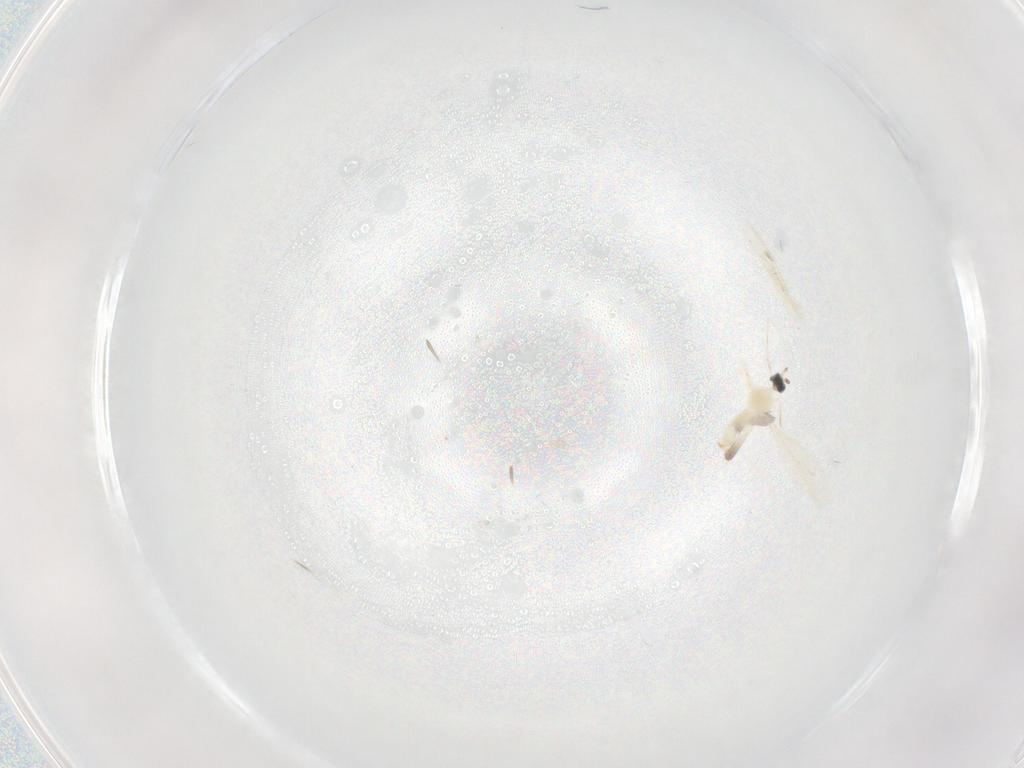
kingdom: Animalia
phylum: Arthropoda
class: Insecta
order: Diptera
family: Cecidomyiidae
